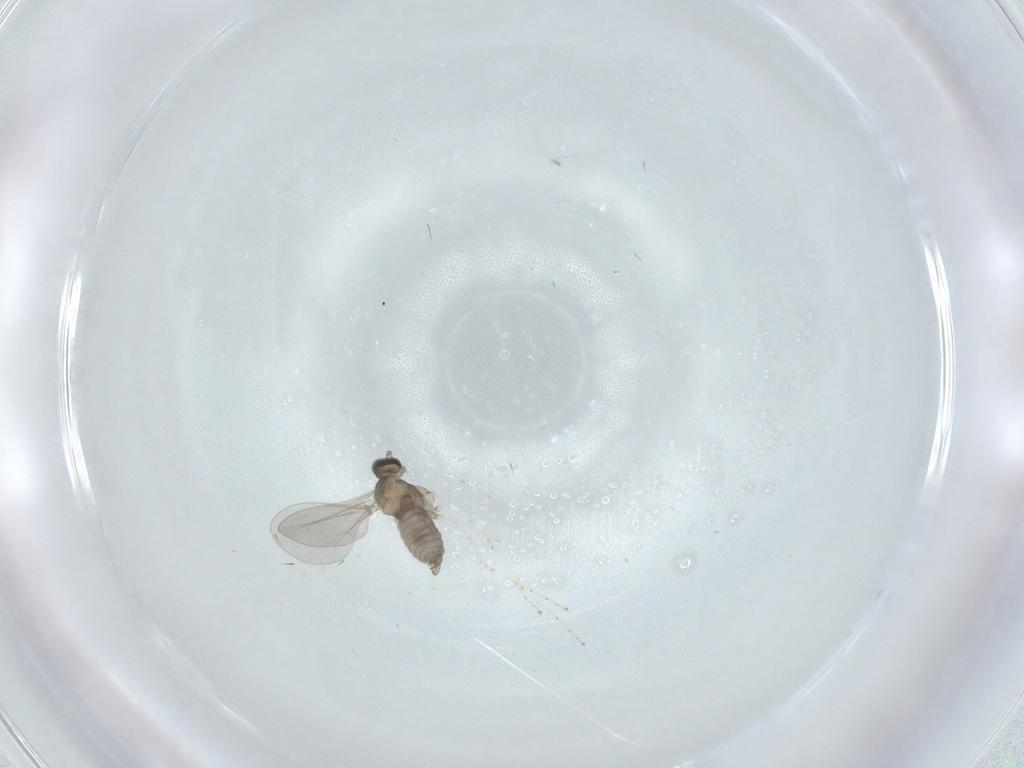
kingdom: Animalia
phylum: Arthropoda
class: Insecta
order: Diptera
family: Cecidomyiidae
